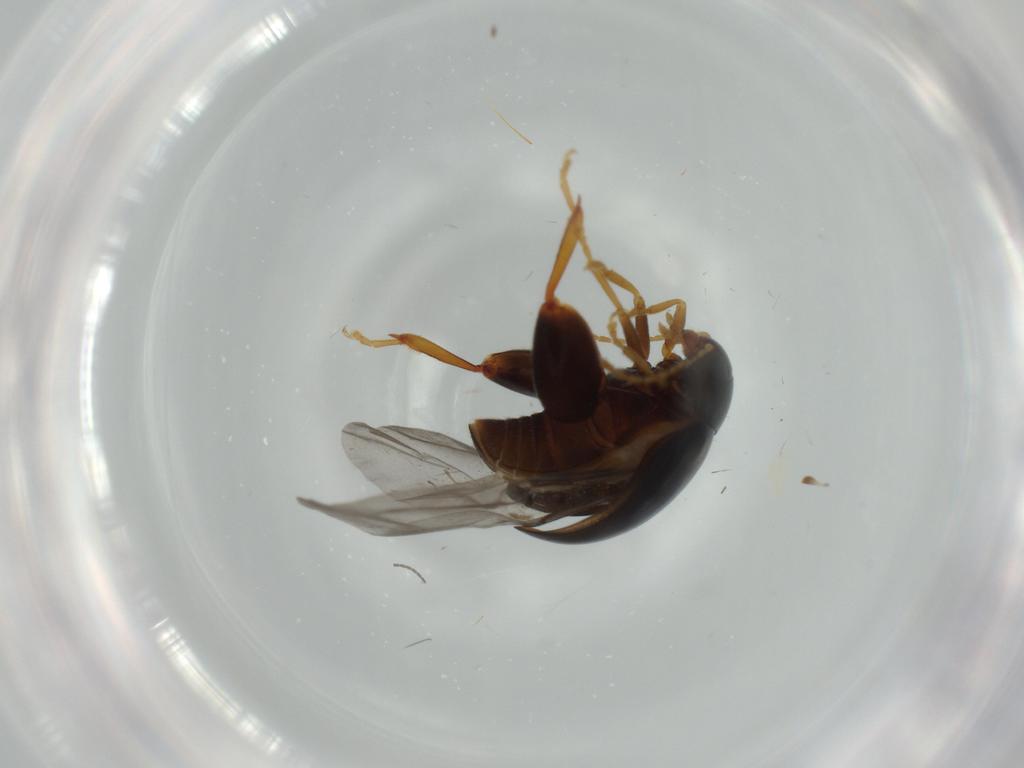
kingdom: Animalia
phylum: Arthropoda
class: Insecta
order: Coleoptera
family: Chrysomelidae
